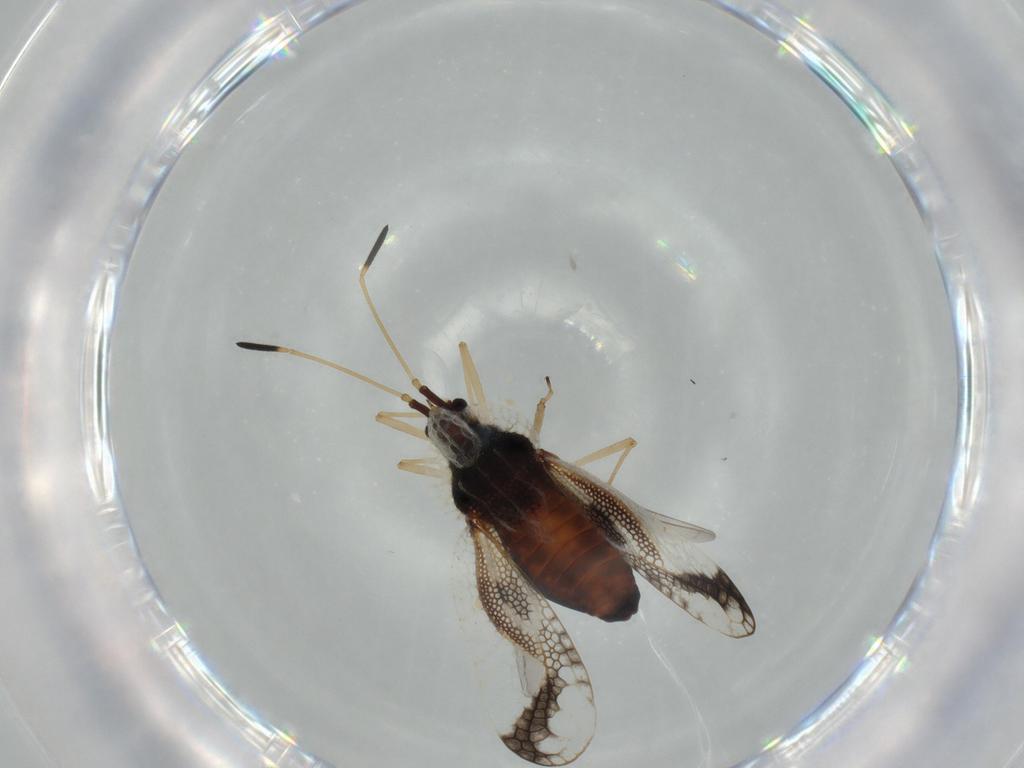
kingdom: Animalia
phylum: Arthropoda
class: Insecta
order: Hemiptera
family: Tingidae
